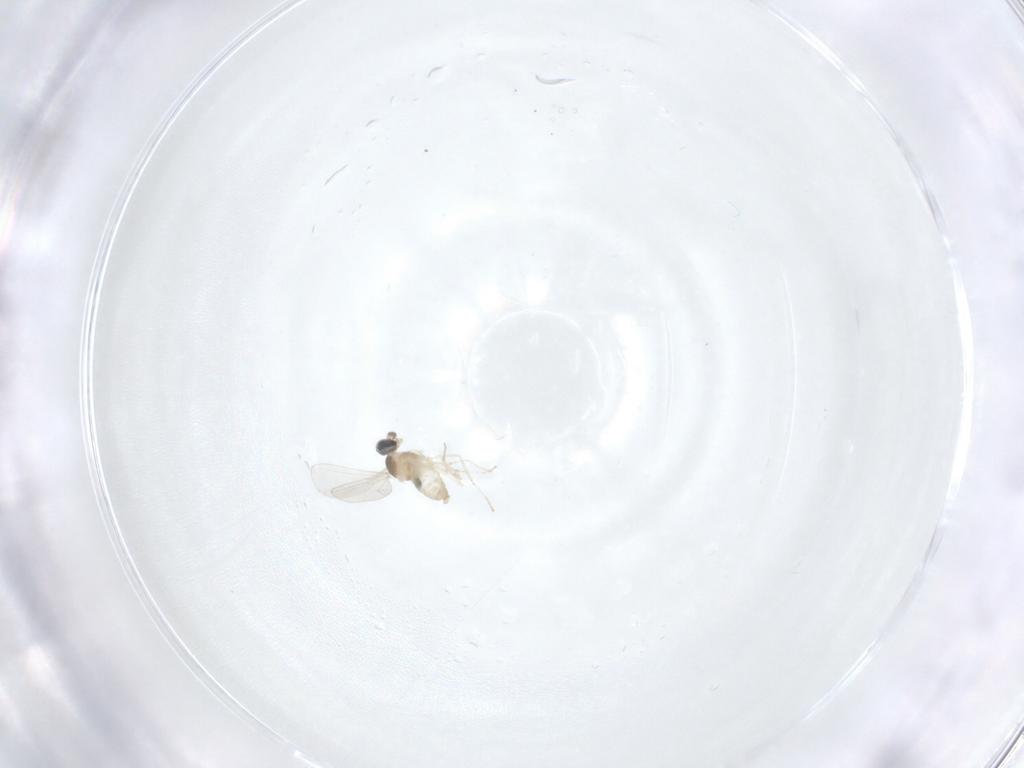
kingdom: Animalia
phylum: Arthropoda
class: Insecta
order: Diptera
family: Cecidomyiidae
